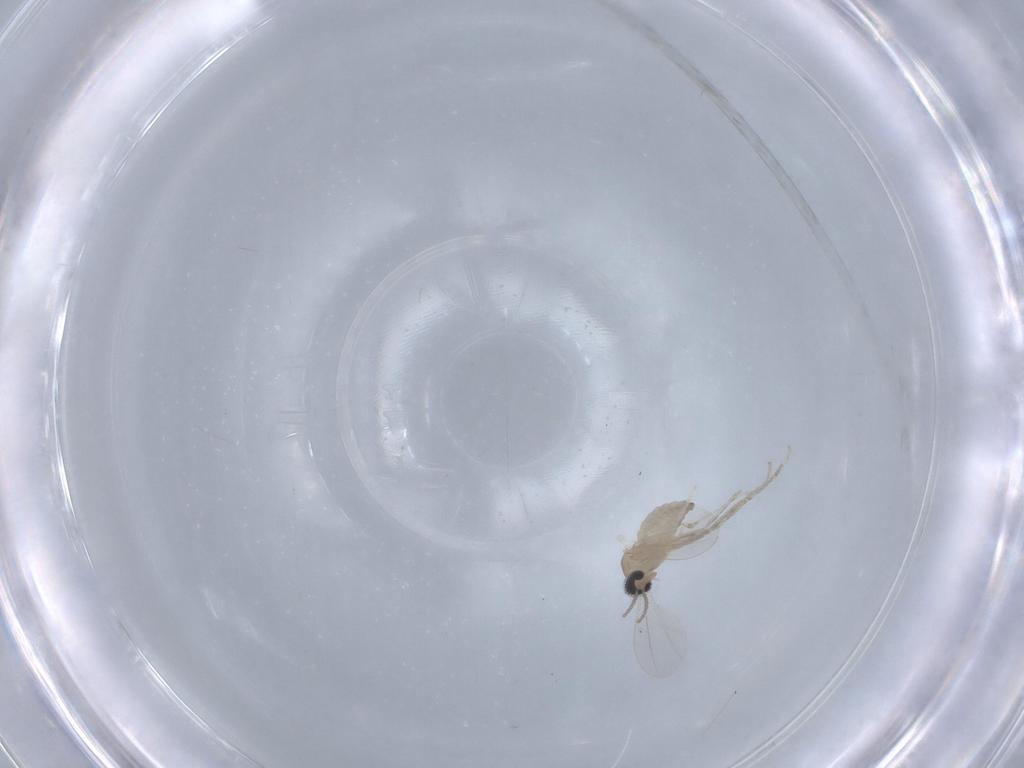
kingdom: Animalia
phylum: Arthropoda
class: Insecta
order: Diptera
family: Cecidomyiidae
